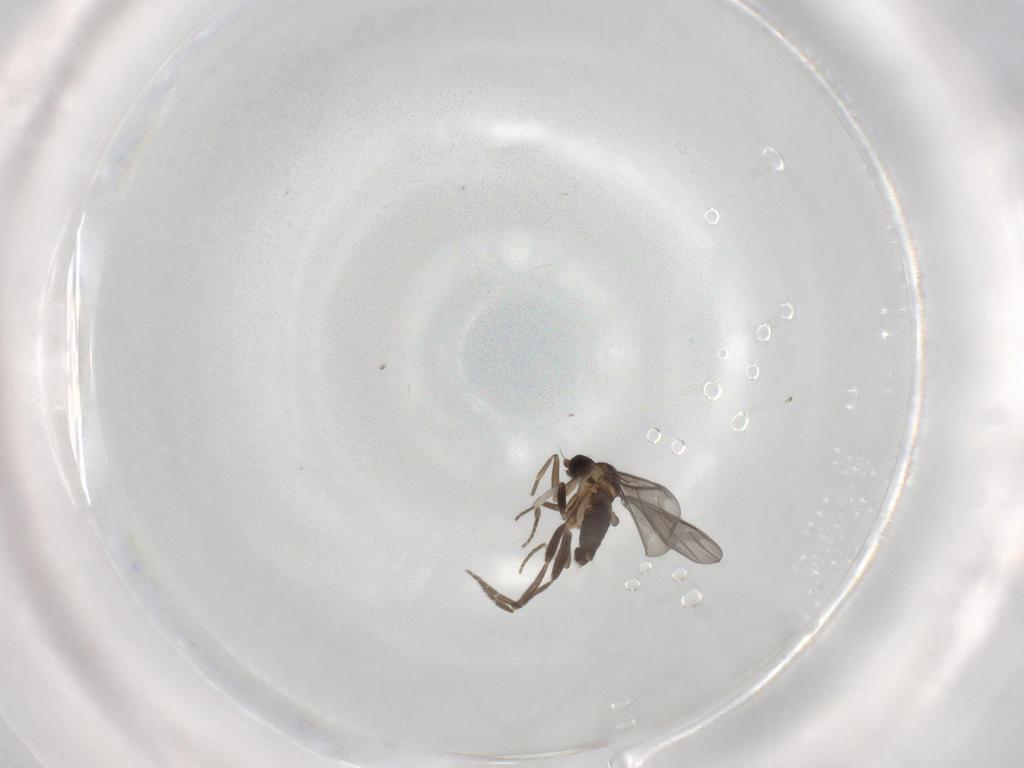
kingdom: Animalia
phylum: Arthropoda
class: Insecta
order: Diptera
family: Phoridae
